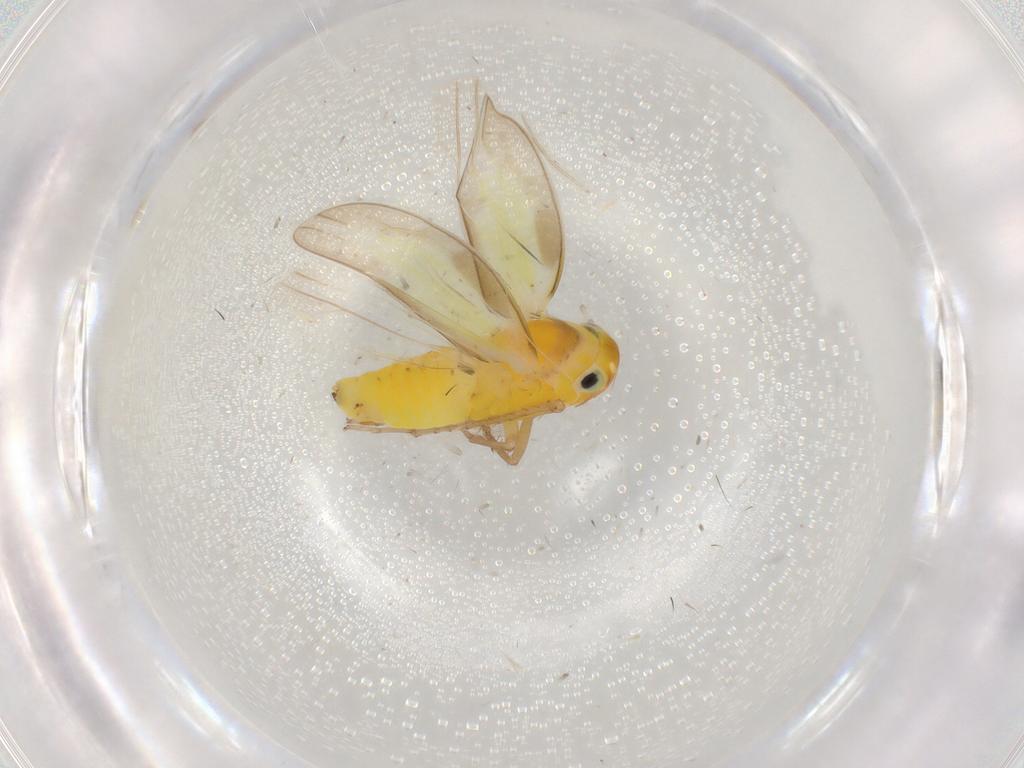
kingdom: Animalia
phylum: Arthropoda
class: Insecta
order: Hemiptera
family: Cicadellidae
